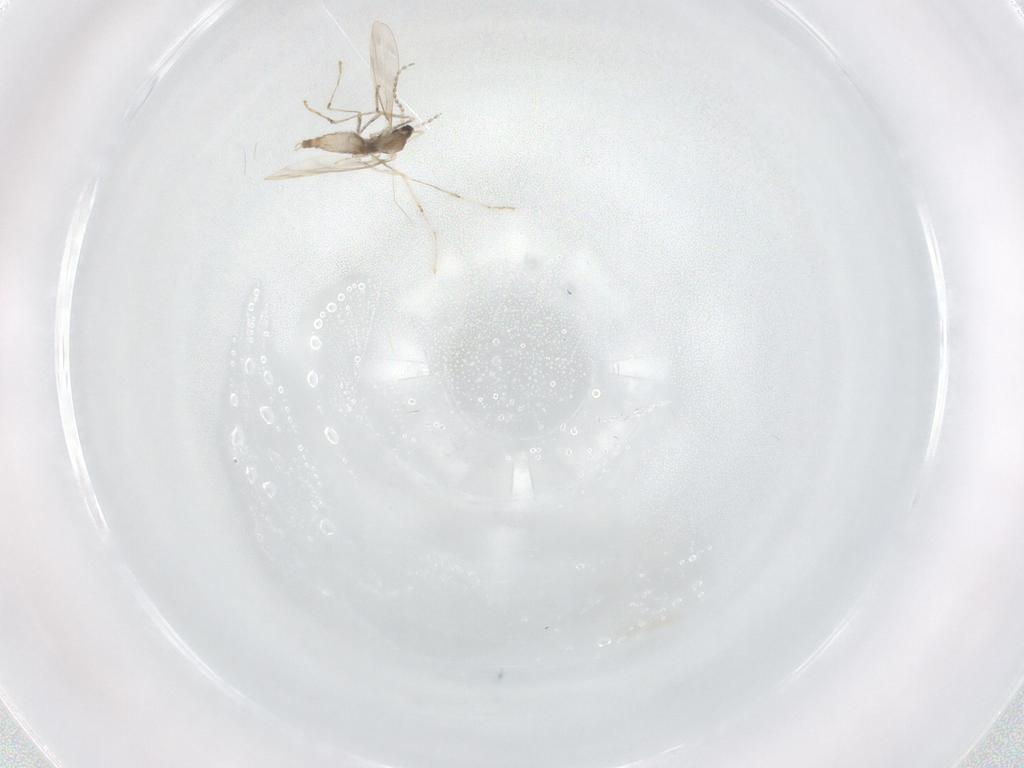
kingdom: Animalia
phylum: Arthropoda
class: Insecta
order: Diptera
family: Cecidomyiidae
